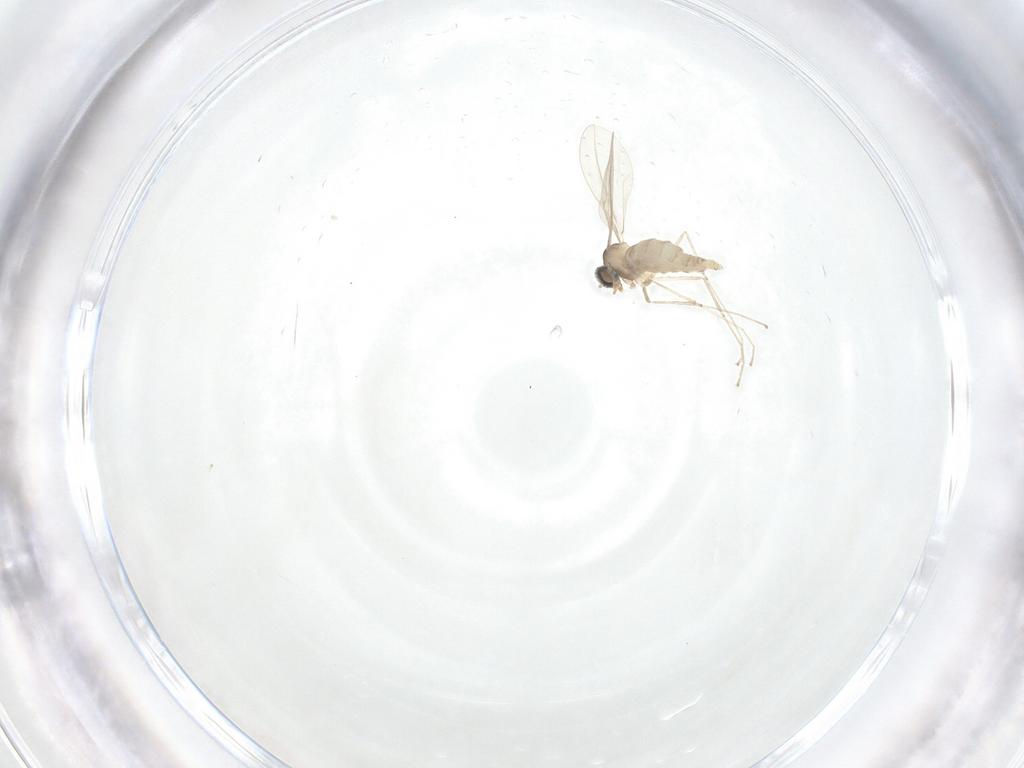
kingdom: Animalia
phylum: Arthropoda
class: Insecta
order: Diptera
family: Cecidomyiidae
